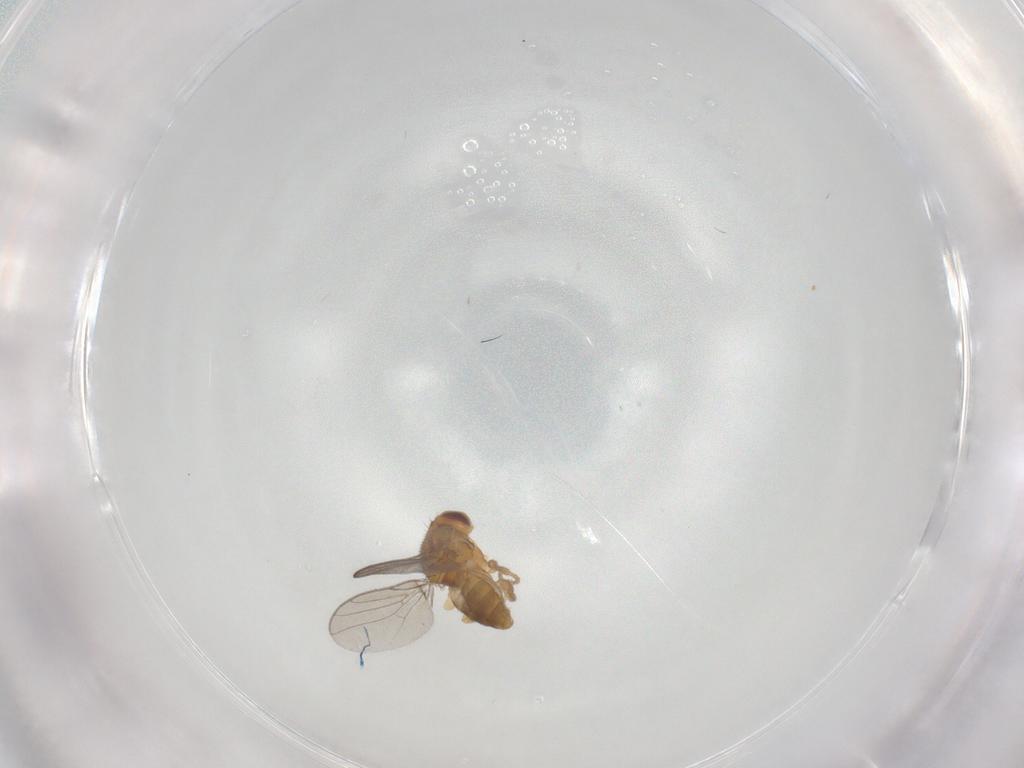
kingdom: Animalia
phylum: Arthropoda
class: Insecta
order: Diptera
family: Chloropidae
